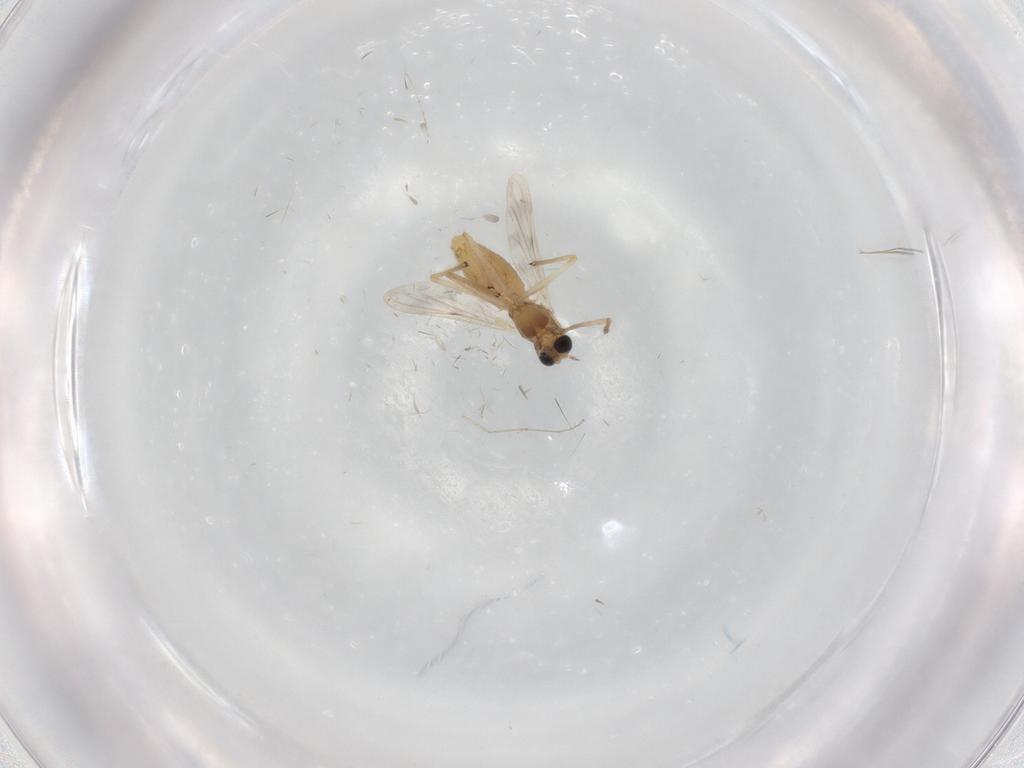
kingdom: Animalia
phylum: Arthropoda
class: Insecta
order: Diptera
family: Chironomidae
